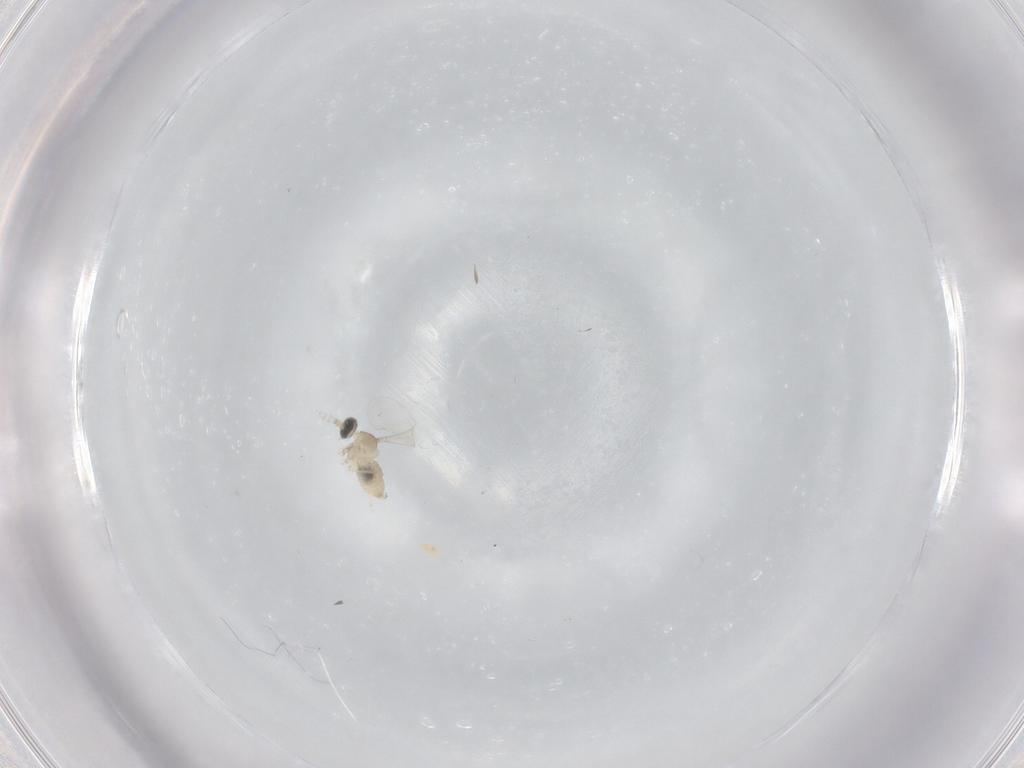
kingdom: Animalia
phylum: Arthropoda
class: Insecta
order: Diptera
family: Cecidomyiidae
